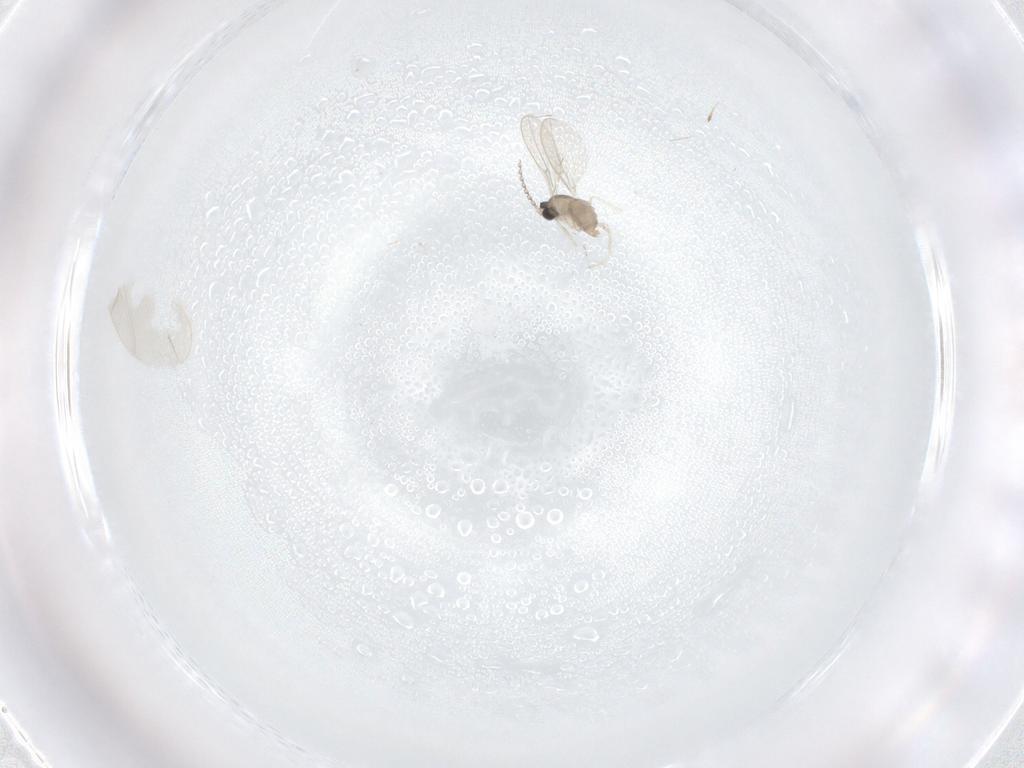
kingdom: Animalia
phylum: Arthropoda
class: Insecta
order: Diptera
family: Cecidomyiidae
